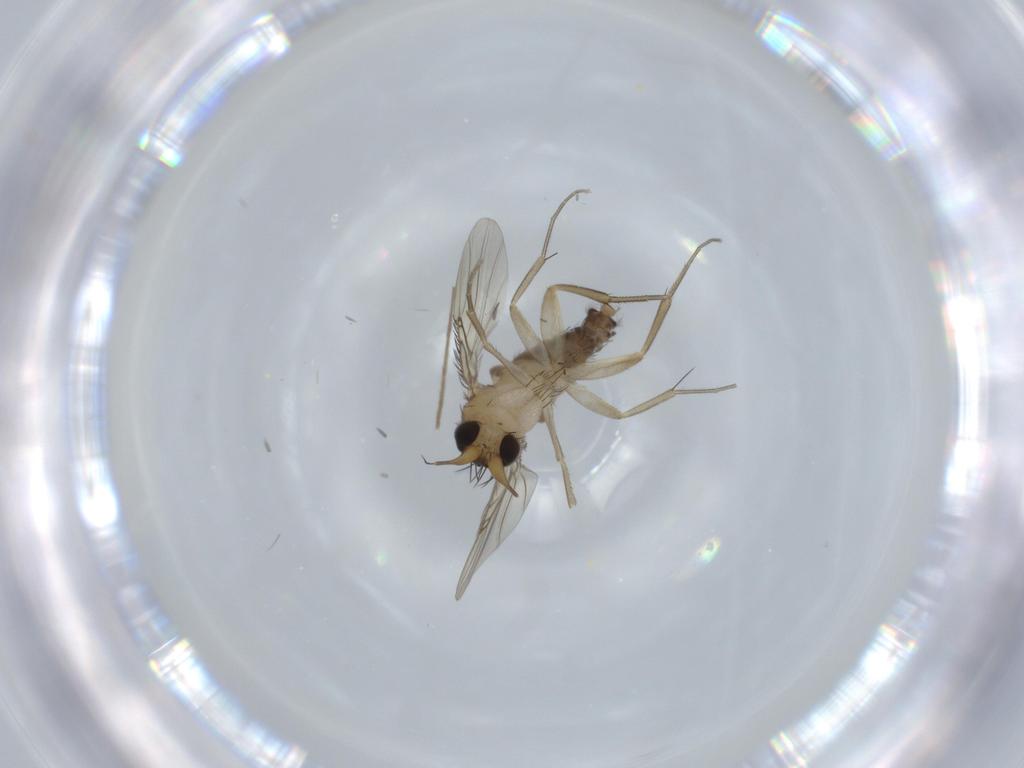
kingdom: Animalia
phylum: Arthropoda
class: Insecta
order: Diptera
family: Phoridae
